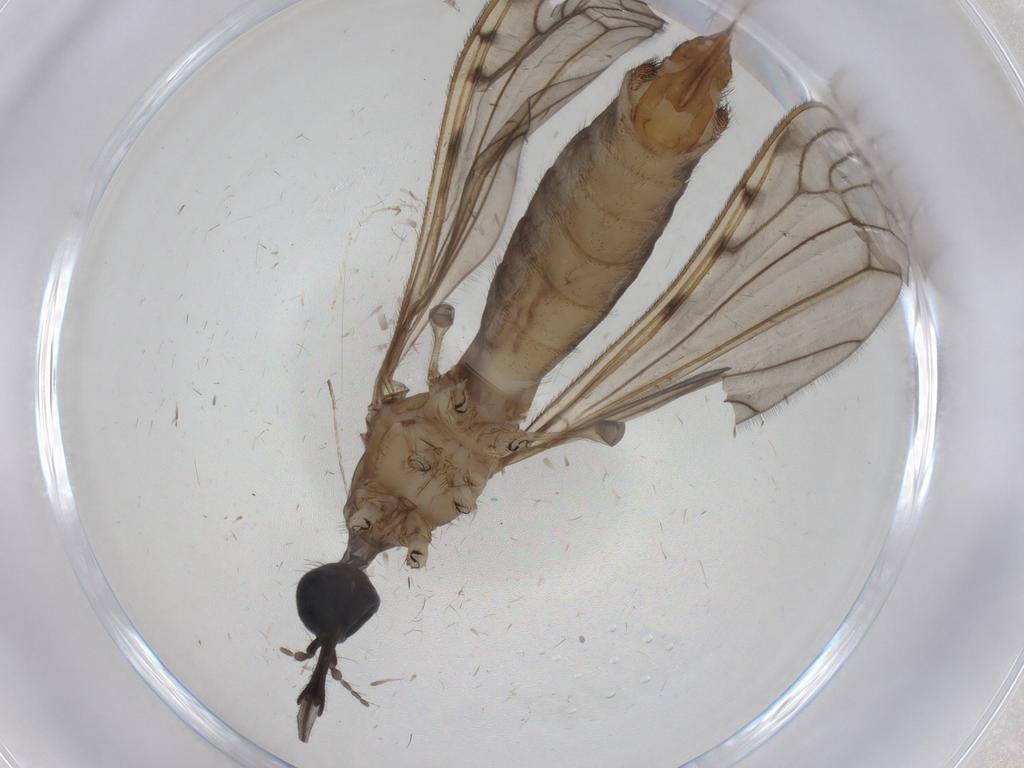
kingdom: Animalia
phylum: Arthropoda
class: Insecta
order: Diptera
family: Limoniidae
